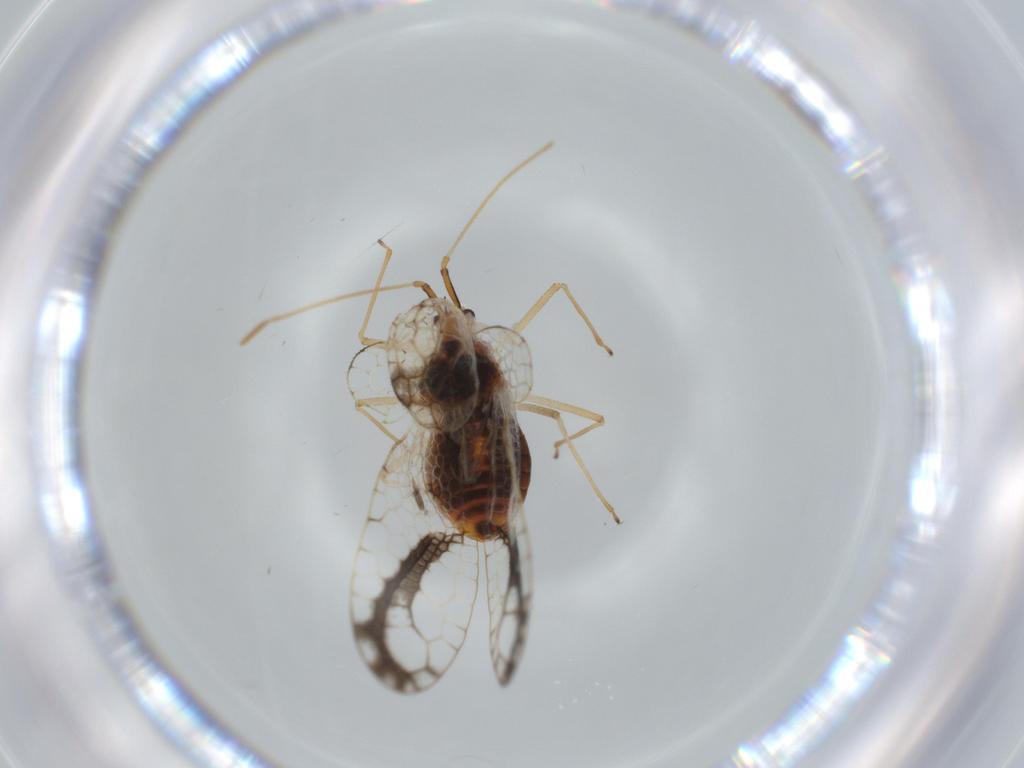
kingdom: Animalia
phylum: Arthropoda
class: Insecta
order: Hemiptera
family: Tingidae
